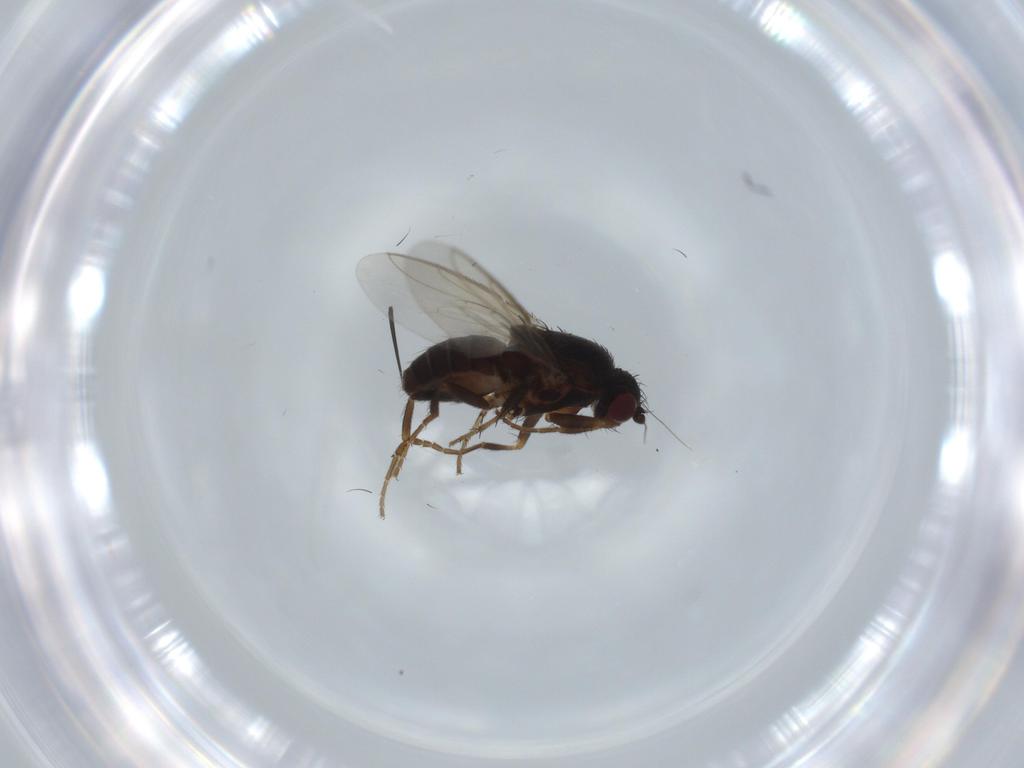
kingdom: Animalia
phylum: Arthropoda
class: Insecta
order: Diptera
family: Sphaeroceridae
